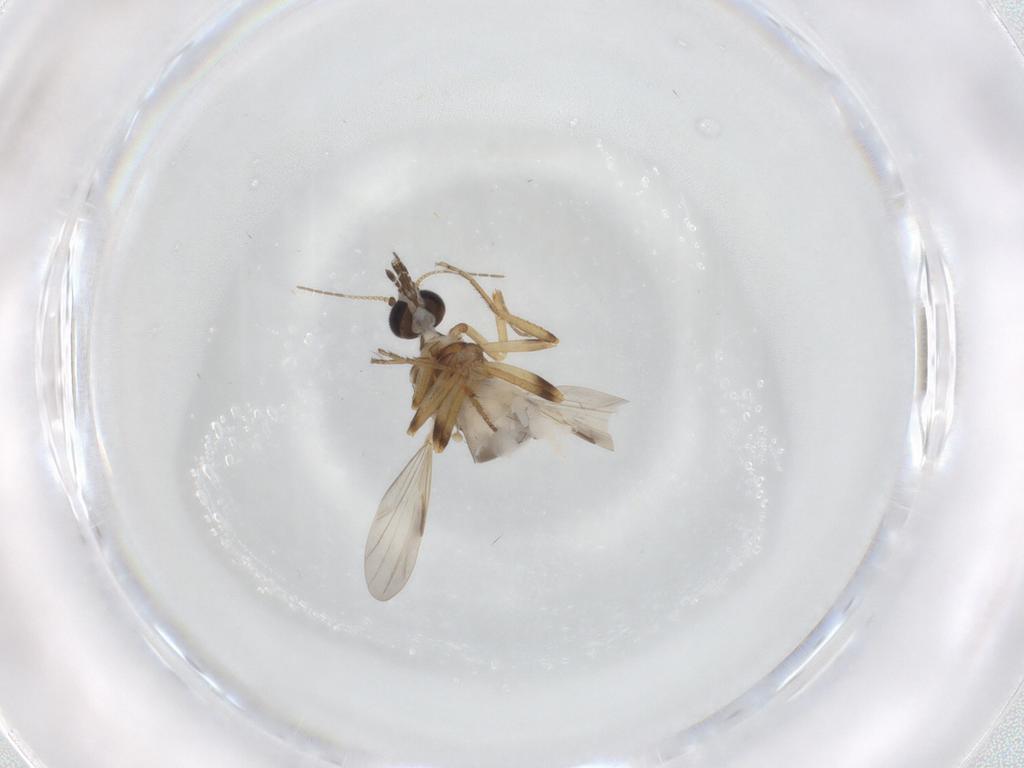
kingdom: Animalia
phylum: Arthropoda
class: Insecta
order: Diptera
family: Ceratopogonidae
